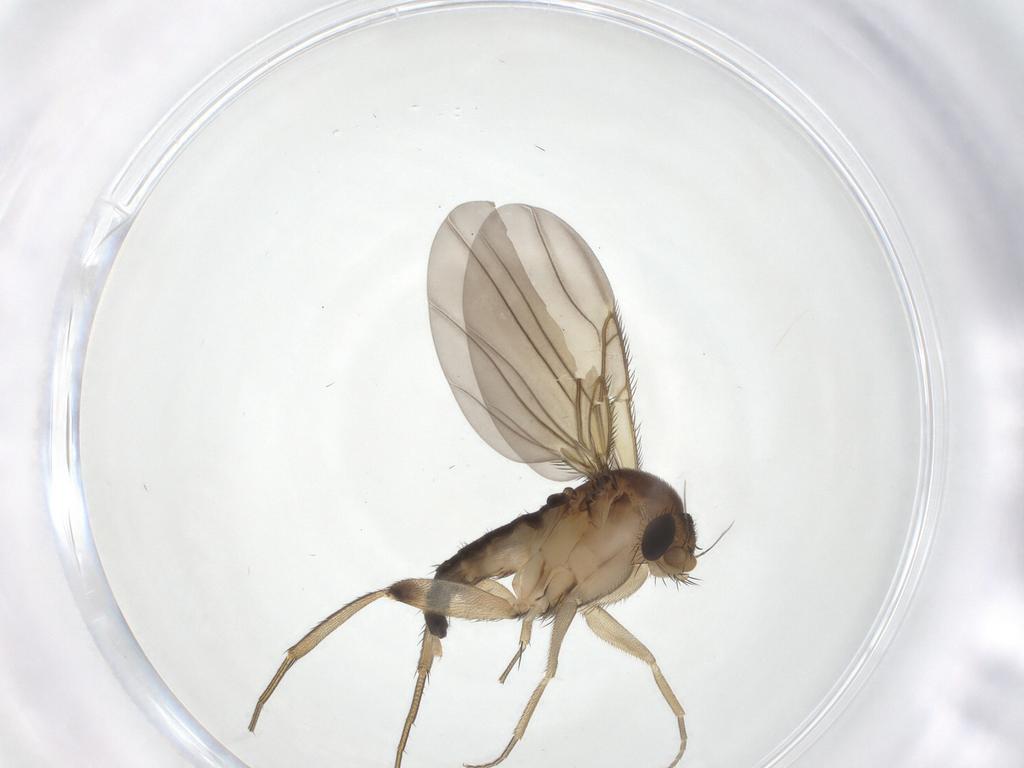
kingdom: Animalia
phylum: Arthropoda
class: Insecta
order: Diptera
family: Phoridae
